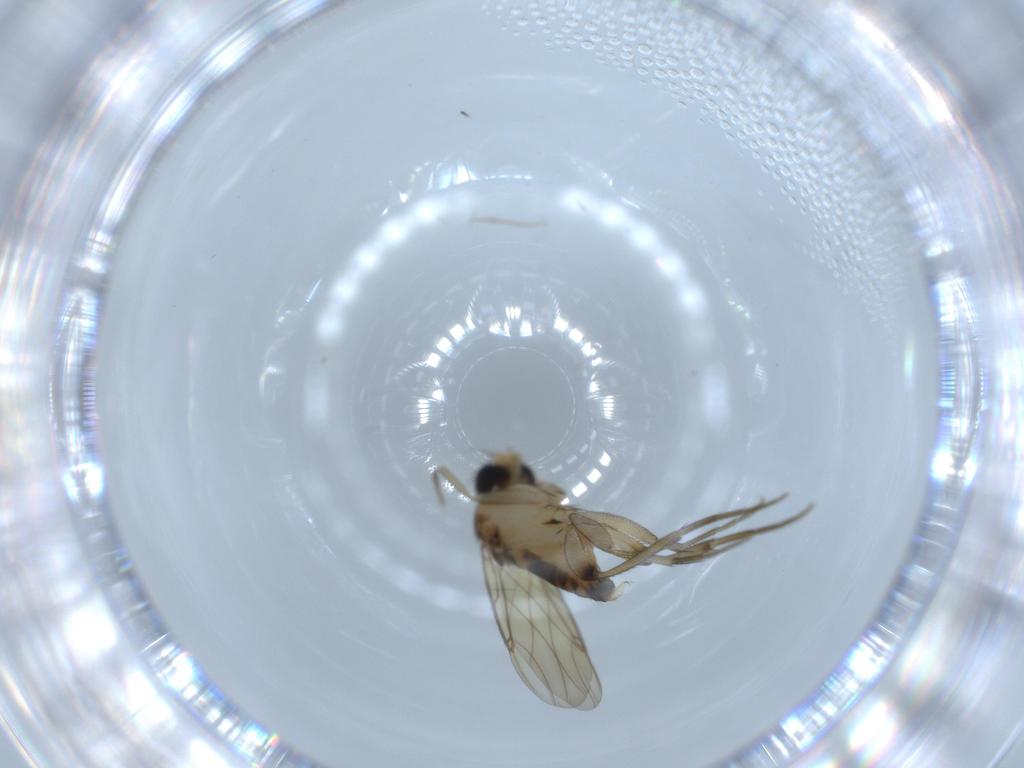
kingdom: Animalia
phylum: Arthropoda
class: Insecta
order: Diptera
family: Phoridae
